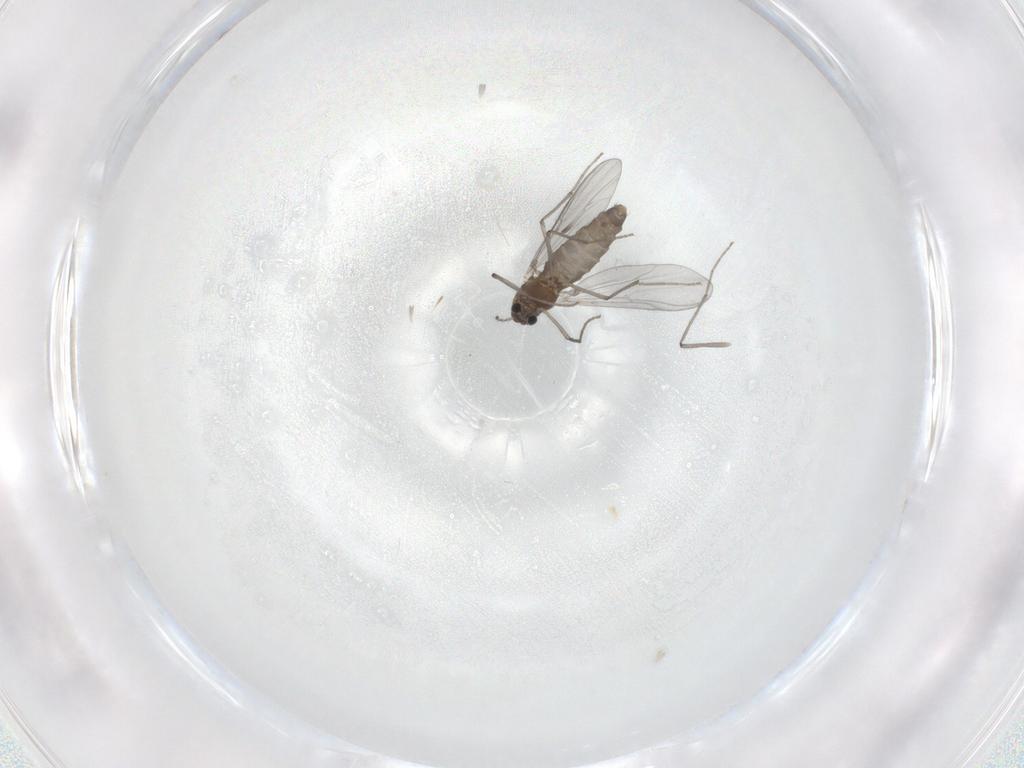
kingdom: Animalia
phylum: Arthropoda
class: Insecta
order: Diptera
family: Chironomidae
